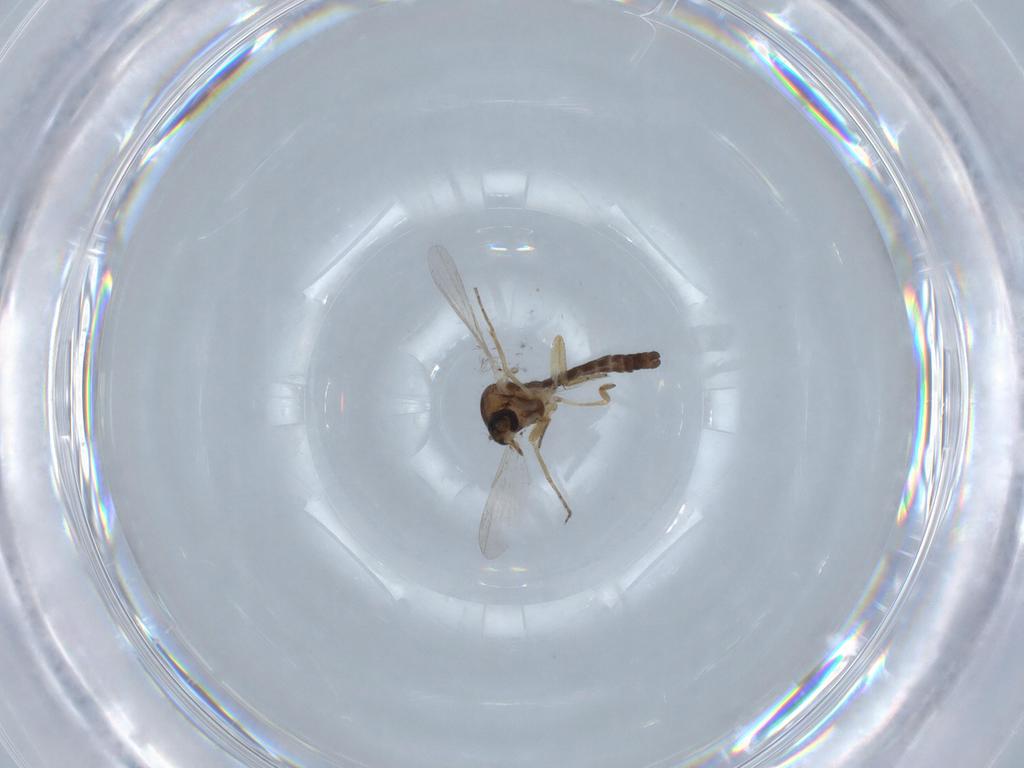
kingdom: Animalia
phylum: Arthropoda
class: Insecta
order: Diptera
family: Ceratopogonidae
